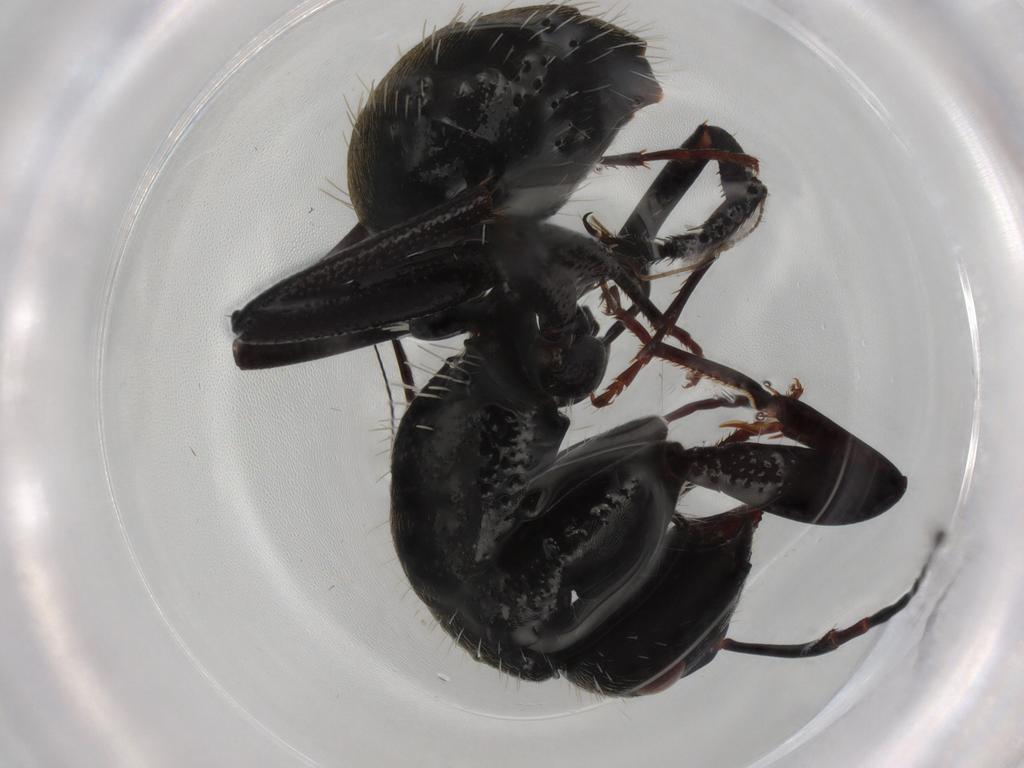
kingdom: Animalia
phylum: Arthropoda
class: Insecta
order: Hymenoptera
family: Formicidae
